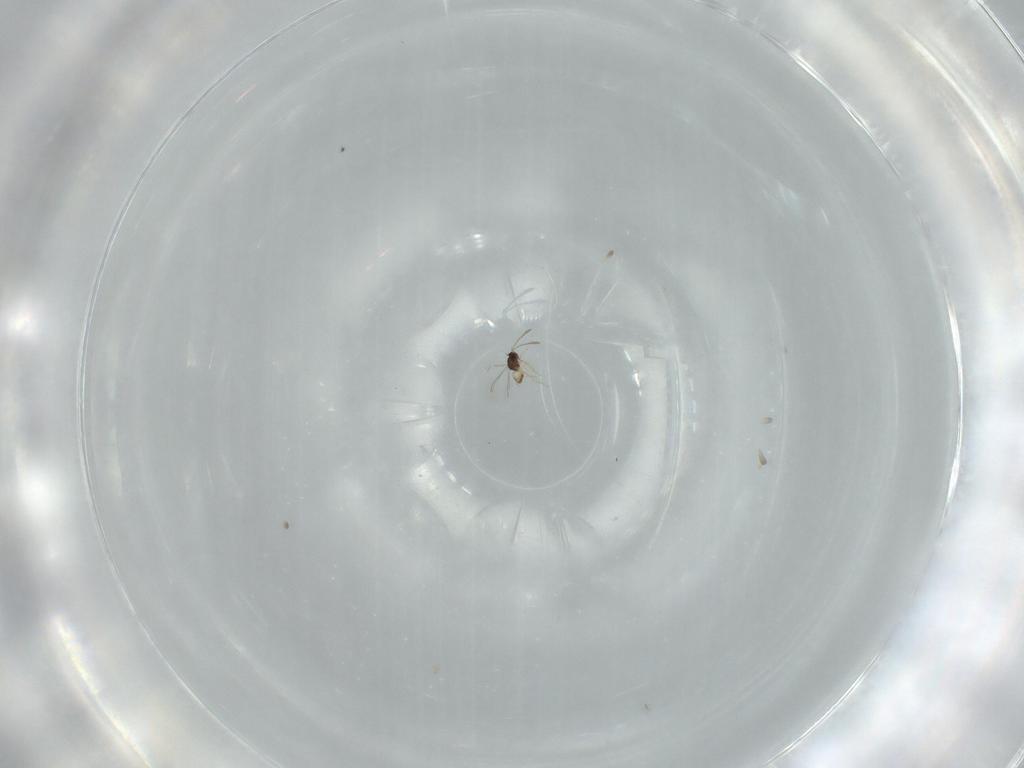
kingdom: Animalia
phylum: Arthropoda
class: Insecta
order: Hymenoptera
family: Mymaridae
